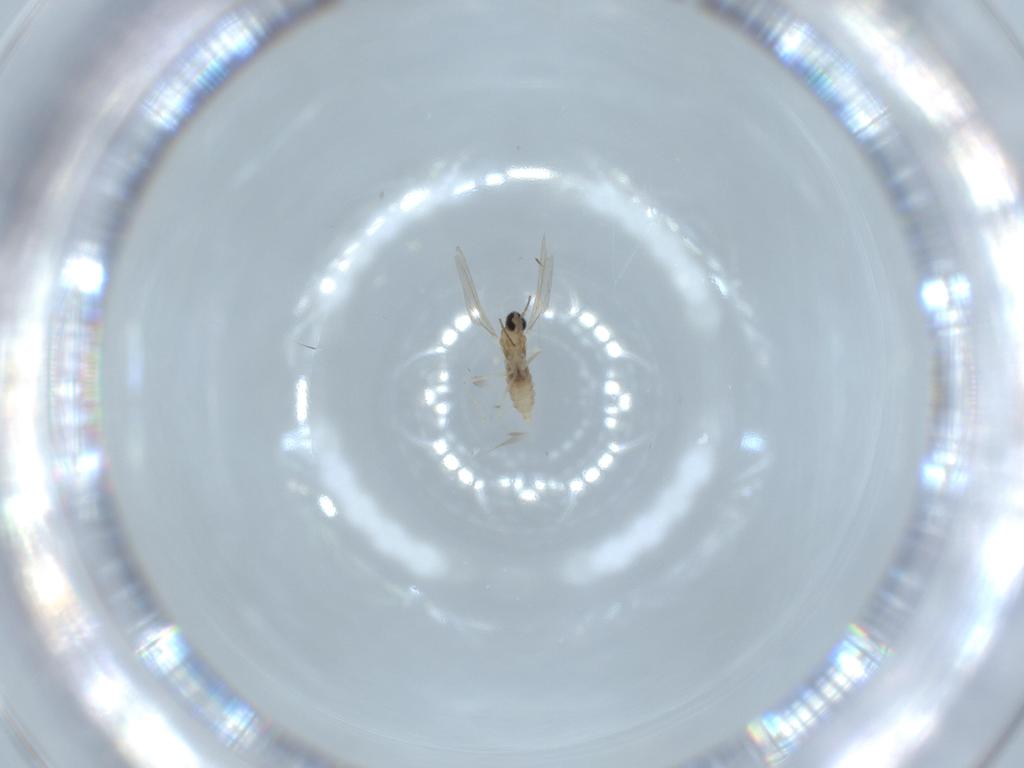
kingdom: Animalia
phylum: Arthropoda
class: Insecta
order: Diptera
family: Cecidomyiidae
